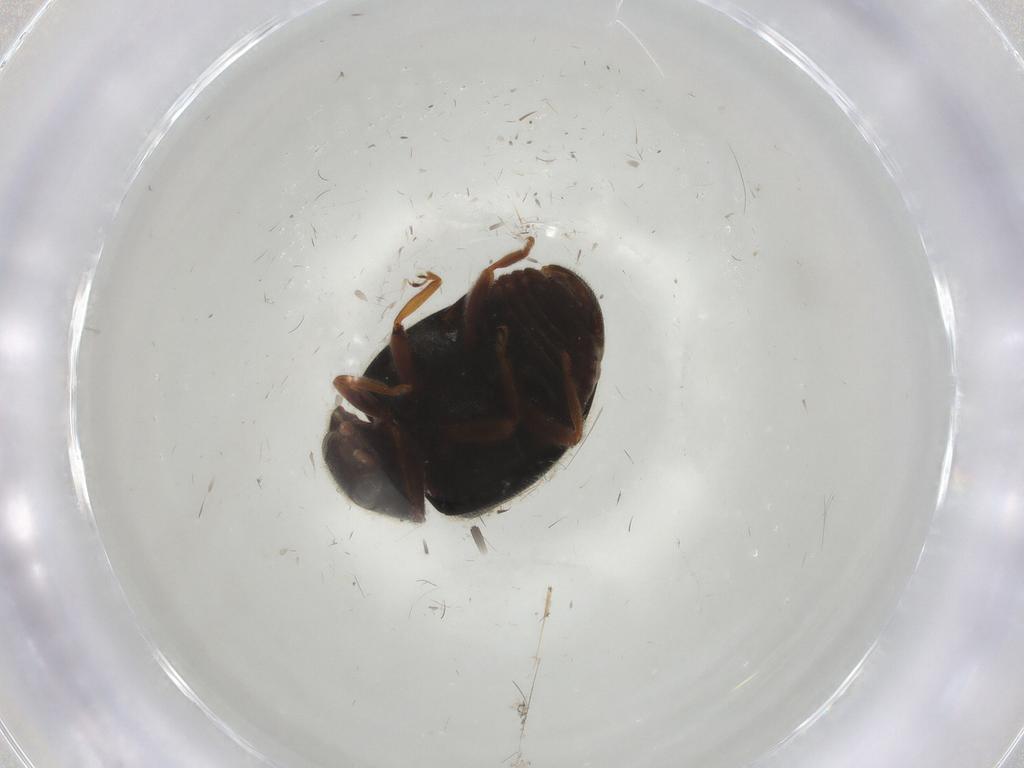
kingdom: Animalia
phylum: Arthropoda
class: Insecta
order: Coleoptera
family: Coccinellidae
